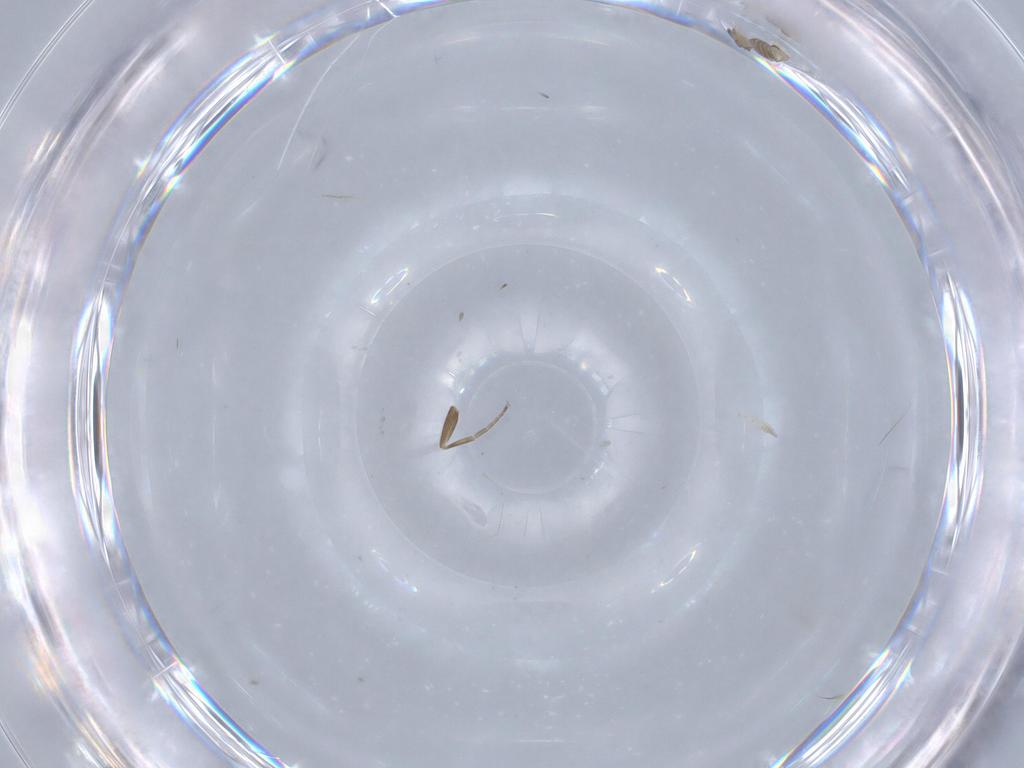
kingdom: Animalia
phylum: Arthropoda
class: Insecta
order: Diptera
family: Cecidomyiidae
